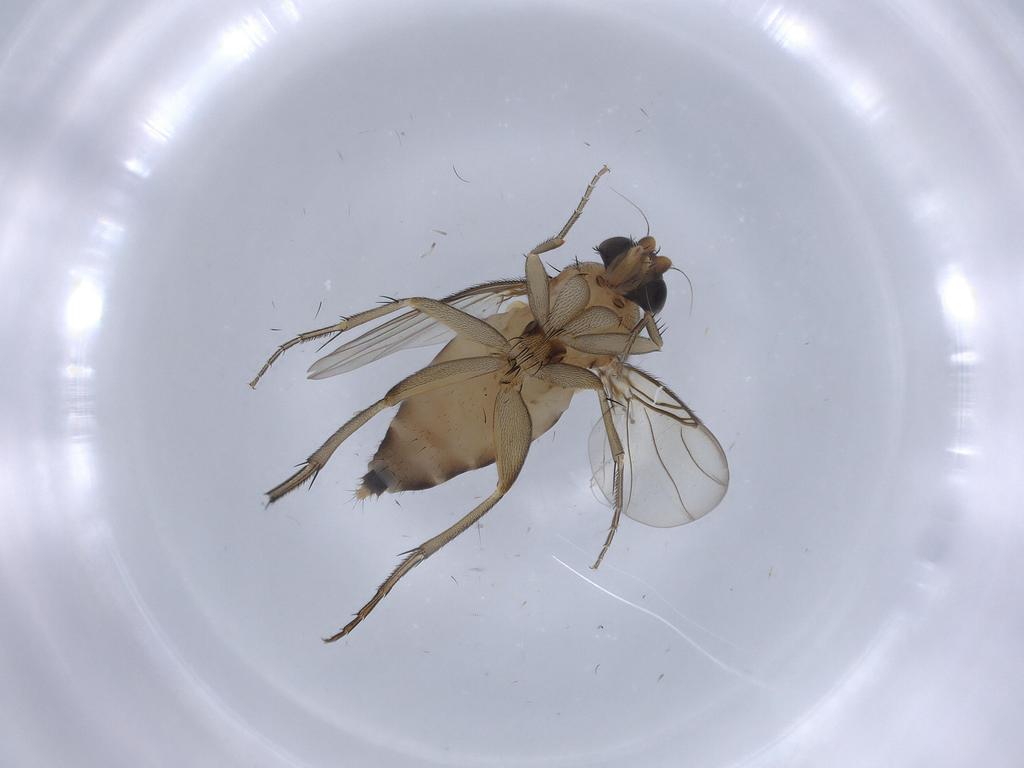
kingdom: Animalia
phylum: Arthropoda
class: Insecta
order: Diptera
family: Phoridae
